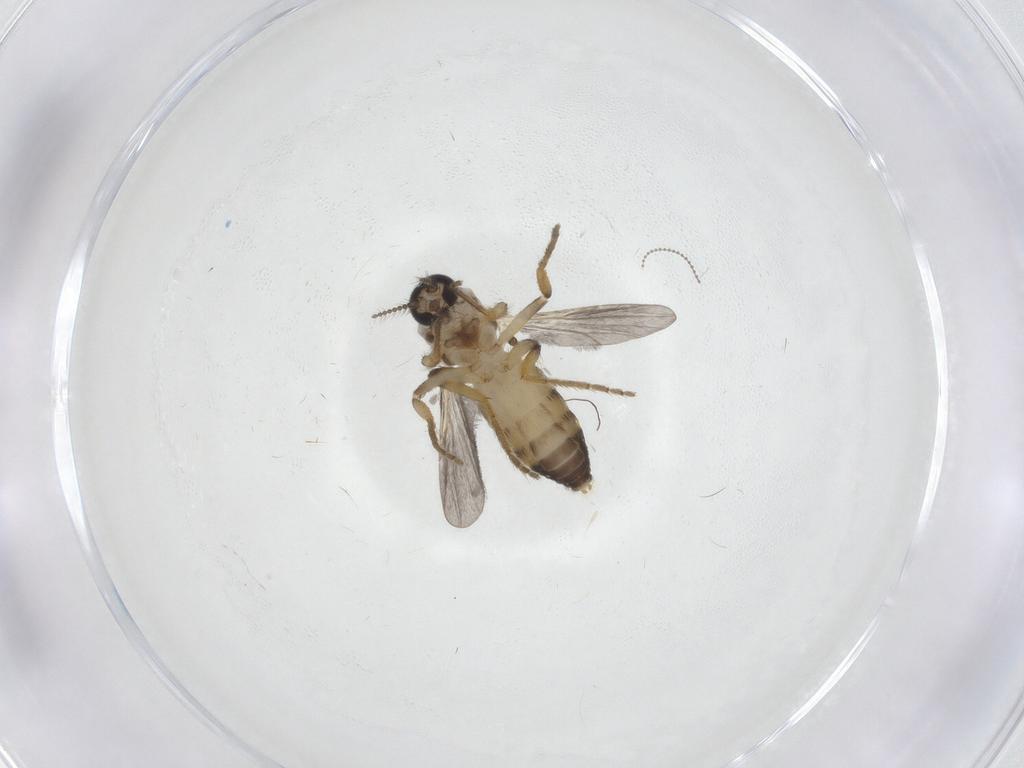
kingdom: Animalia
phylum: Arthropoda
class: Insecta
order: Diptera
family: Ceratopogonidae
